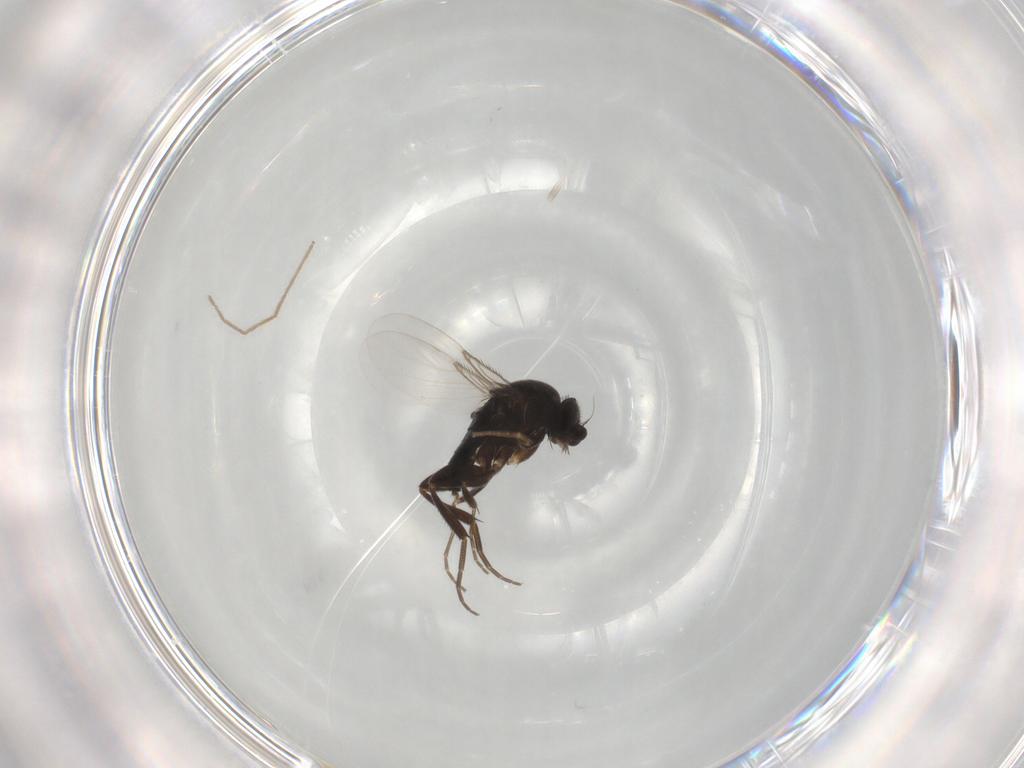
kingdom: Animalia
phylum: Arthropoda
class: Insecta
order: Diptera
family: Phoridae
